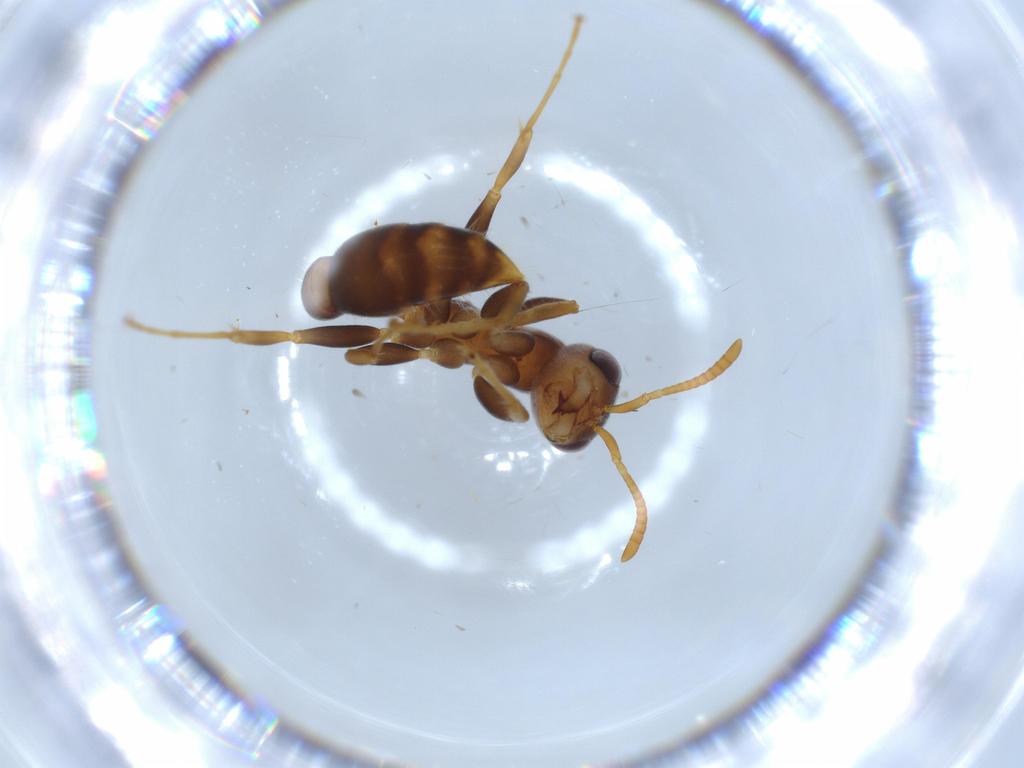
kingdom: Animalia
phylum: Arthropoda
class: Insecta
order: Hymenoptera
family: Formicidae
